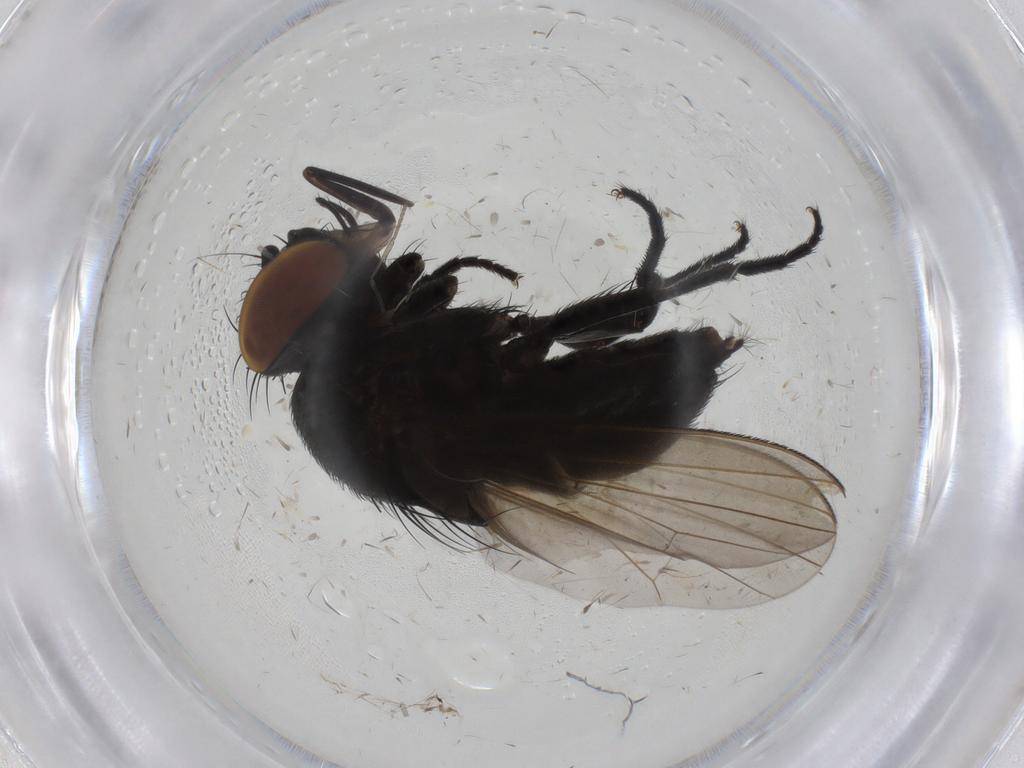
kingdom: Animalia
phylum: Arthropoda
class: Insecta
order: Diptera
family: Milichiidae
